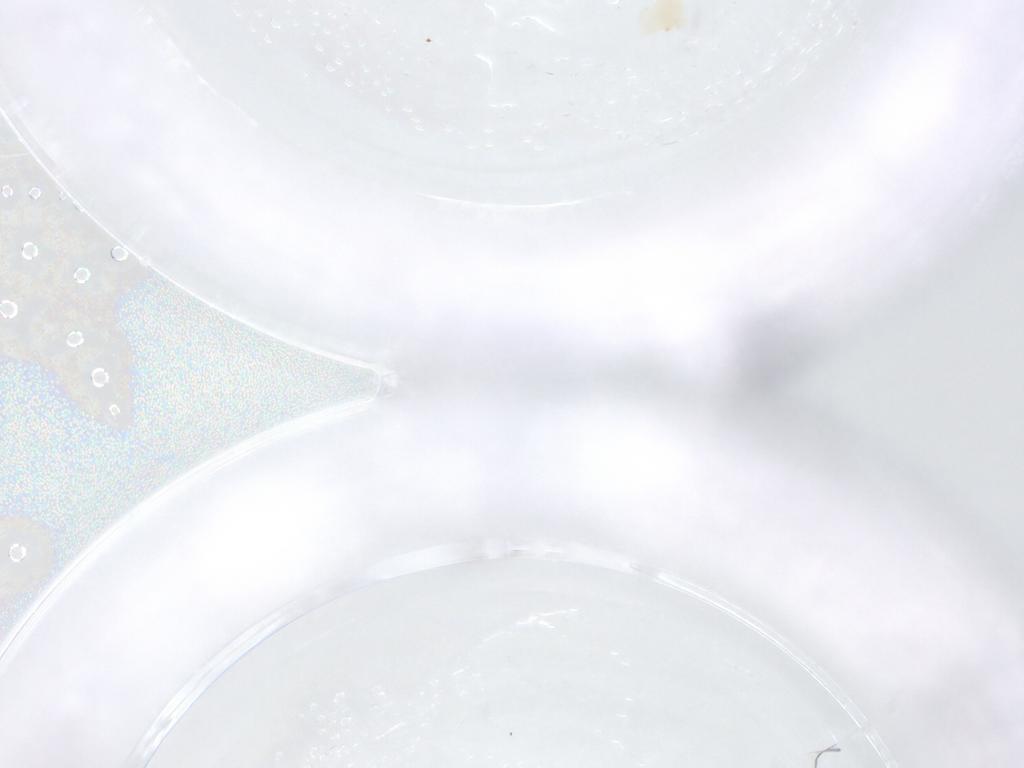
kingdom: Animalia
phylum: Arthropoda
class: Insecta
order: Diptera
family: Ceratopogonidae
